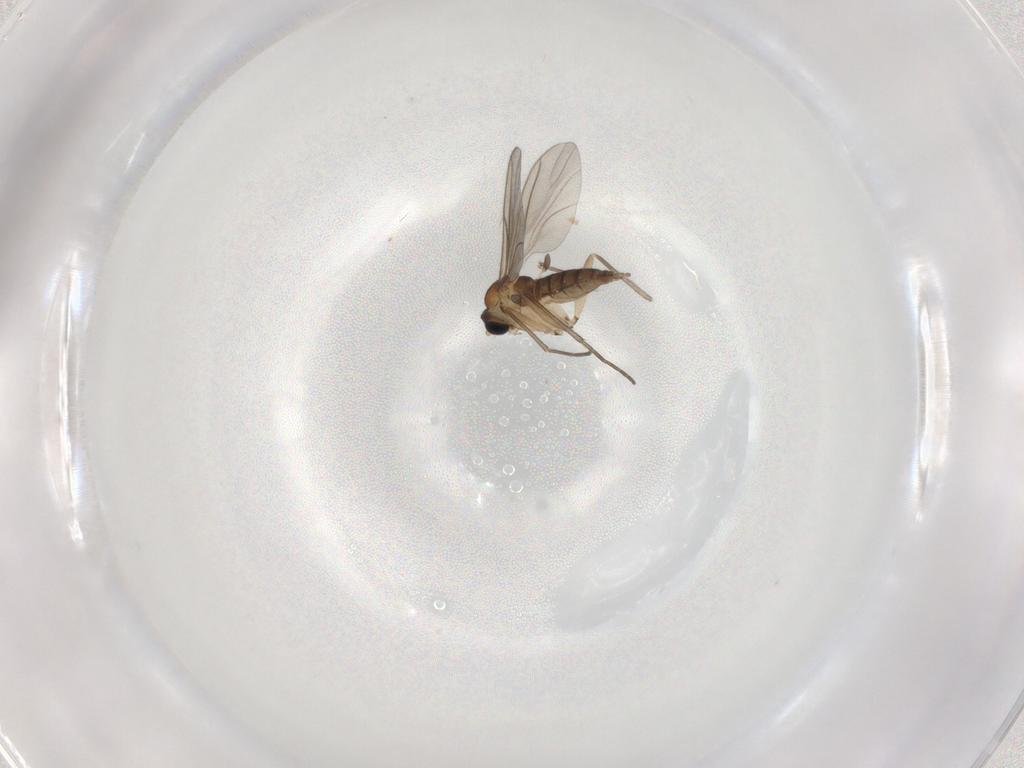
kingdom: Animalia
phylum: Arthropoda
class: Insecta
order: Diptera
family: Sciaridae
